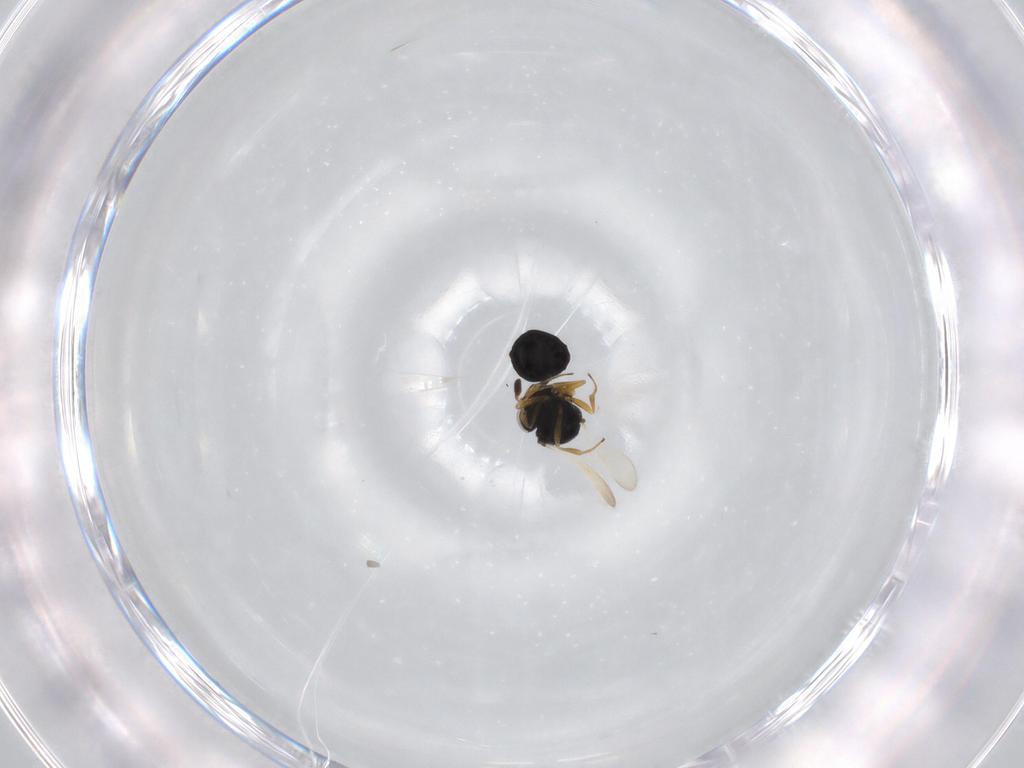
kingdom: Animalia
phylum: Arthropoda
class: Insecta
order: Hymenoptera
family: Scelionidae
